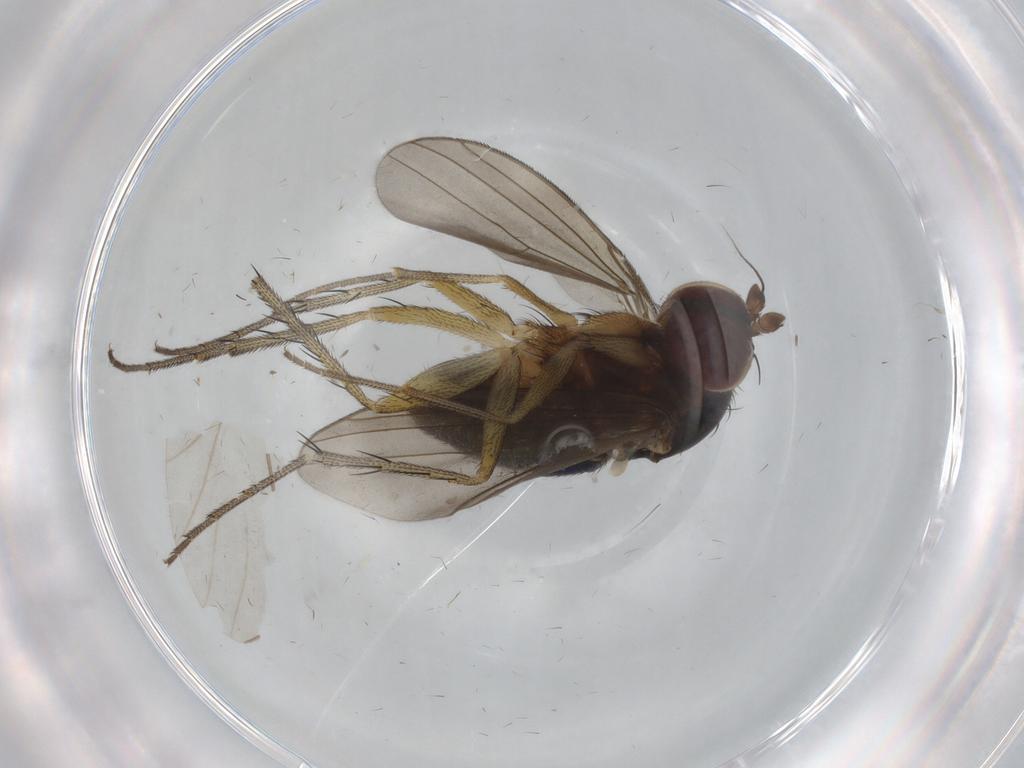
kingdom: Animalia
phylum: Arthropoda
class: Insecta
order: Diptera
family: Dolichopodidae
